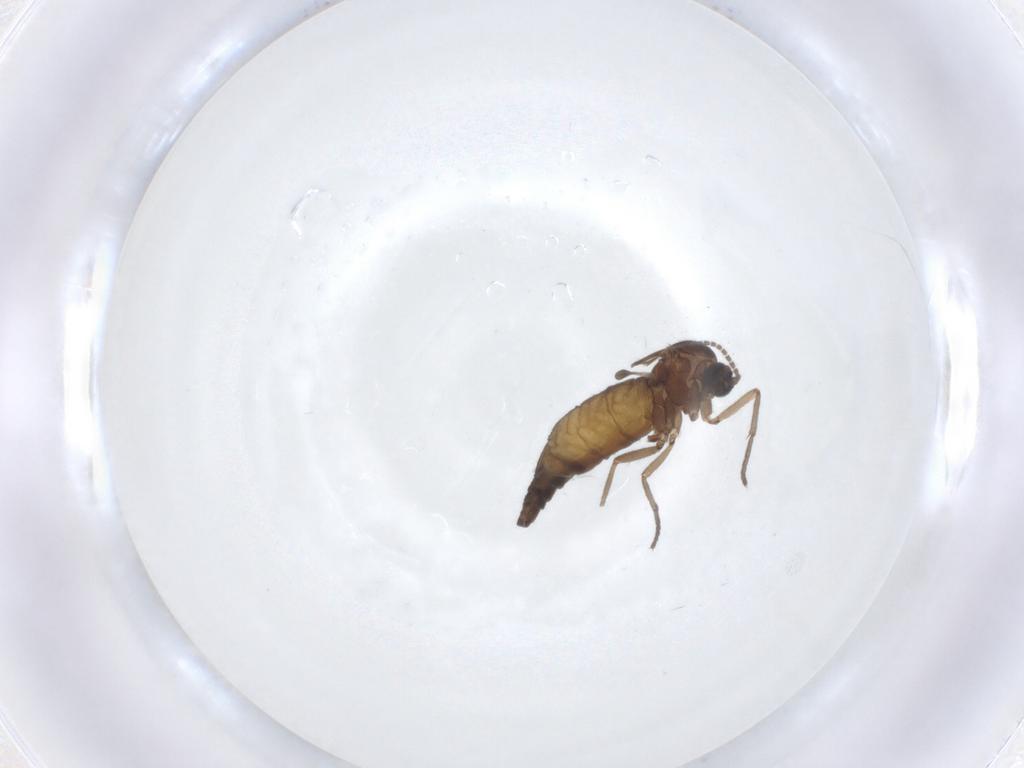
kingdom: Animalia
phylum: Arthropoda
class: Insecta
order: Diptera
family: Sciaridae
